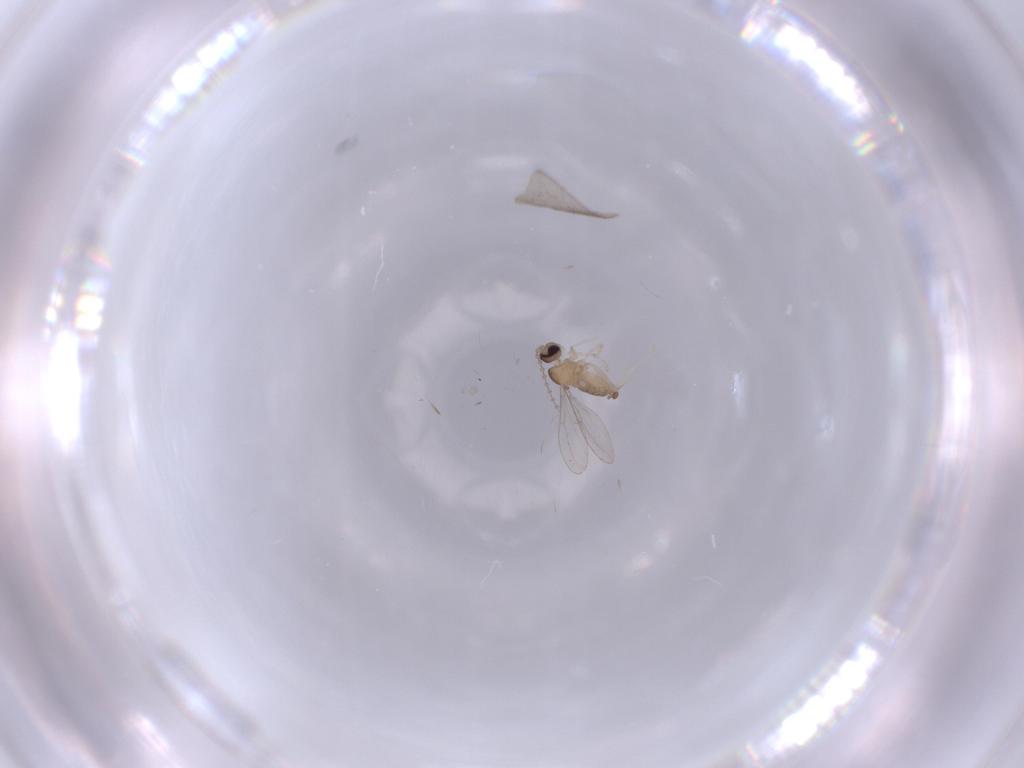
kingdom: Animalia
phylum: Arthropoda
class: Insecta
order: Diptera
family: Cecidomyiidae
